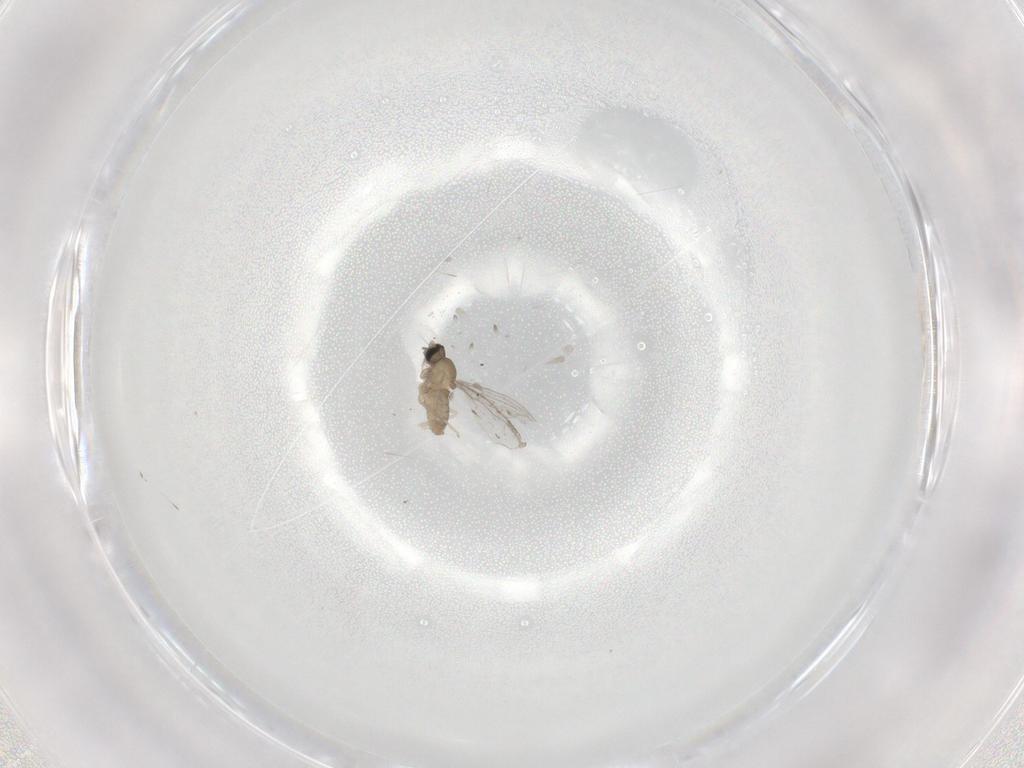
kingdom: Animalia
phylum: Arthropoda
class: Insecta
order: Diptera
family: Cecidomyiidae
